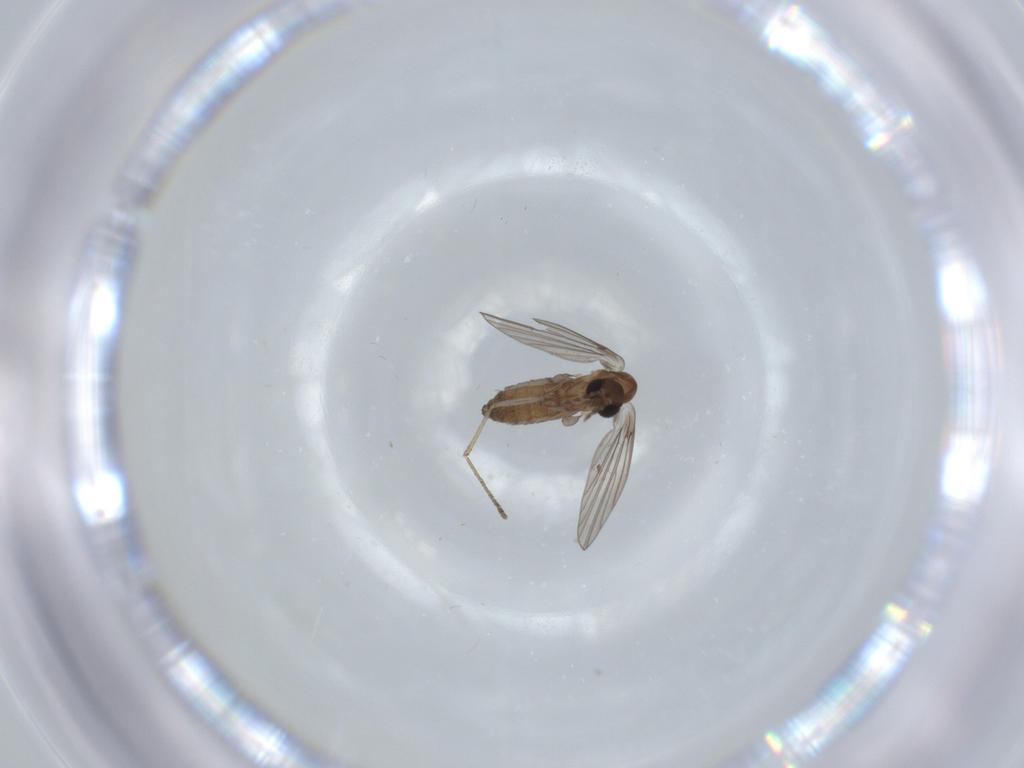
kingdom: Animalia
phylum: Arthropoda
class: Insecta
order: Diptera
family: Psychodidae
